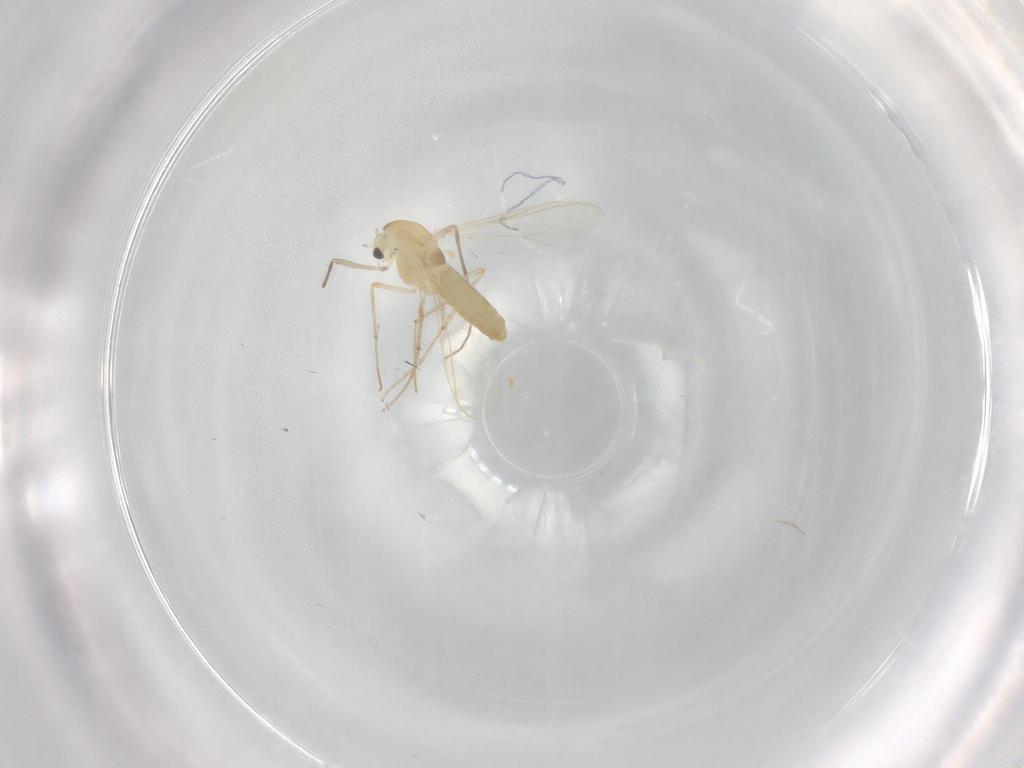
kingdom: Animalia
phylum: Arthropoda
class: Insecta
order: Diptera
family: Chironomidae
